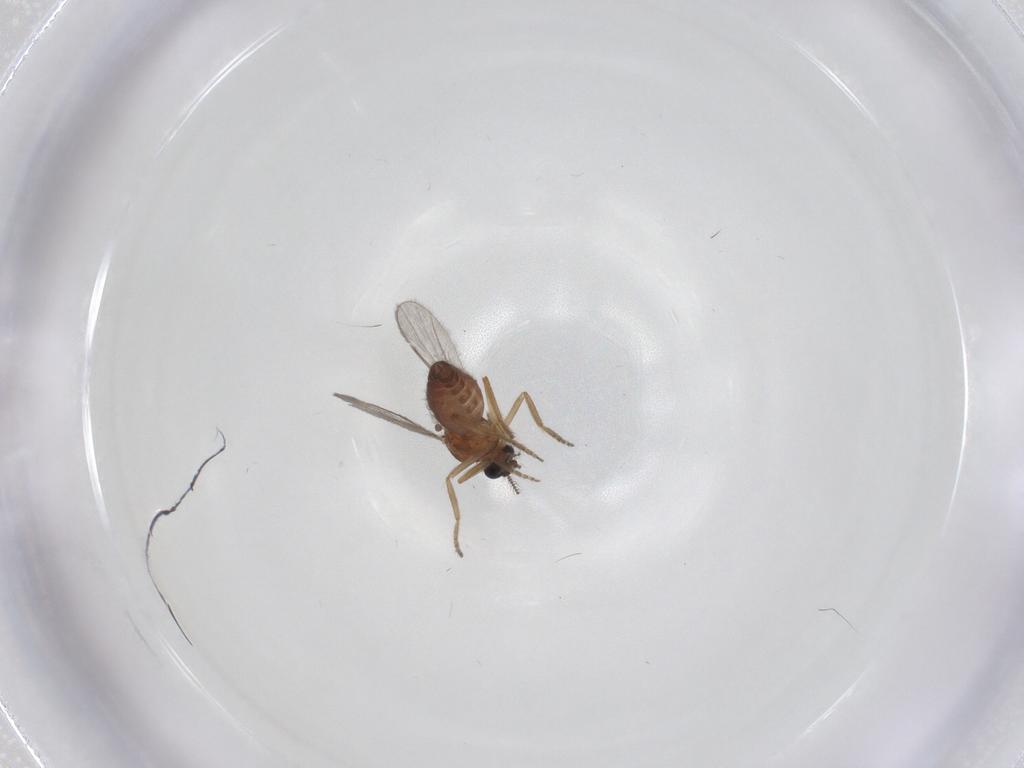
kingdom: Animalia
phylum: Arthropoda
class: Insecta
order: Diptera
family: Ceratopogonidae
